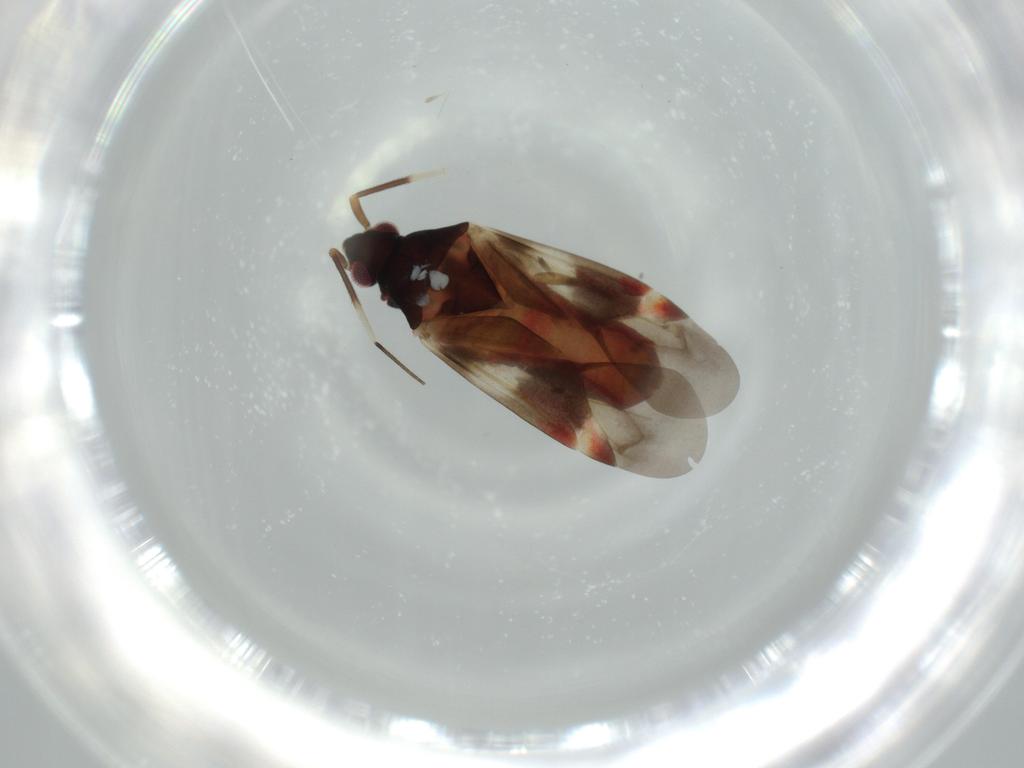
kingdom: Animalia
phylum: Arthropoda
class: Insecta
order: Hemiptera
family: Miridae
